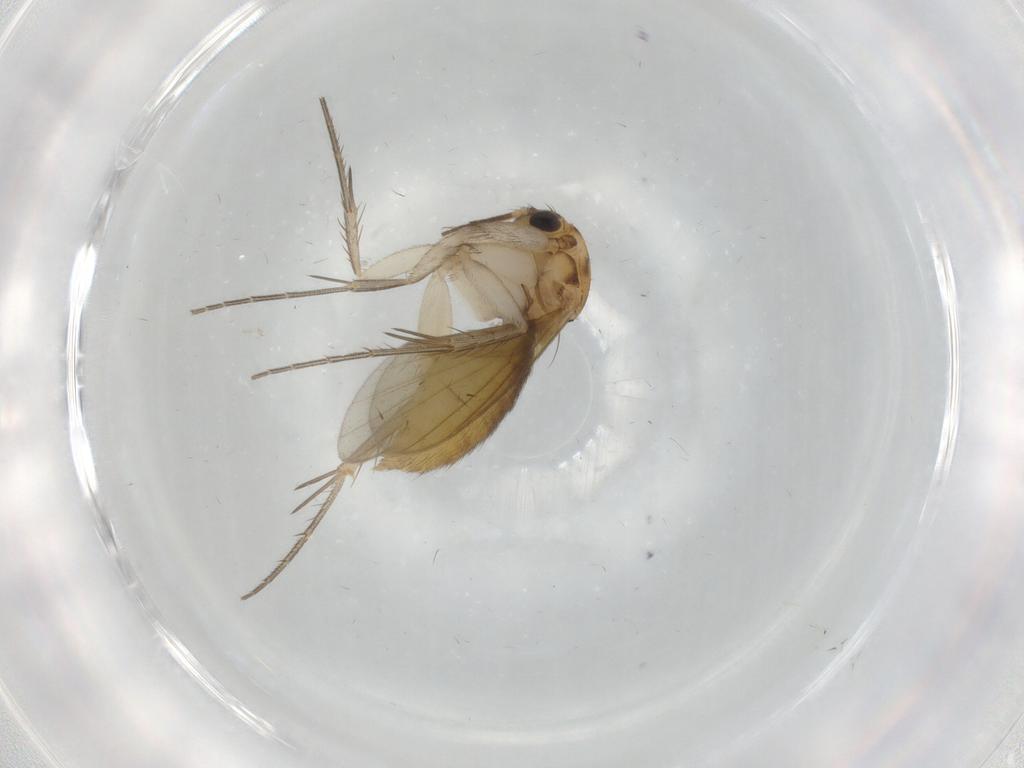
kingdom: Animalia
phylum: Arthropoda
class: Insecta
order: Diptera
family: Mycetophilidae
